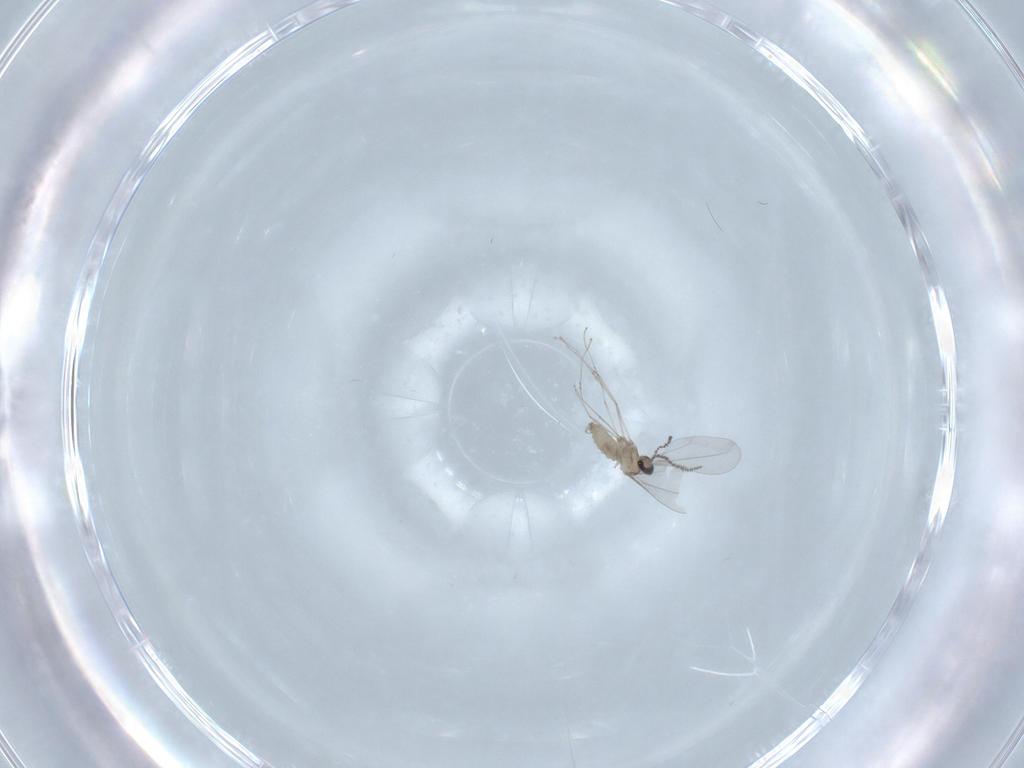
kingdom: Animalia
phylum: Arthropoda
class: Insecta
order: Diptera
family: Cecidomyiidae
